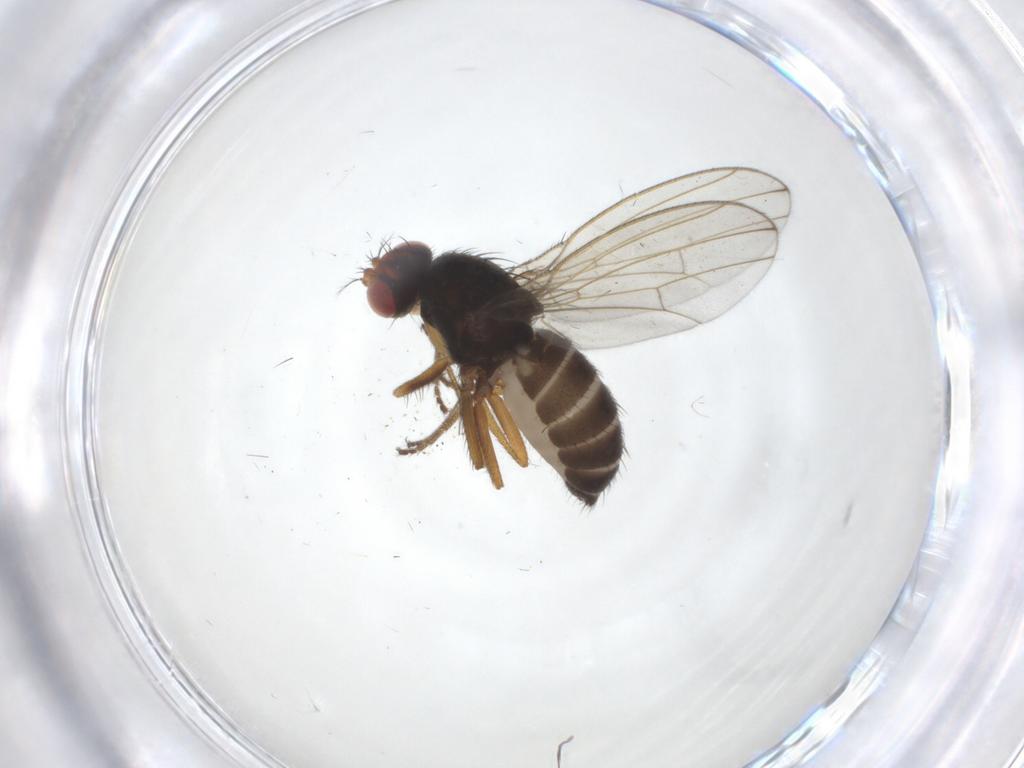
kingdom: Animalia
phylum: Arthropoda
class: Insecta
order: Diptera
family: Drosophilidae
